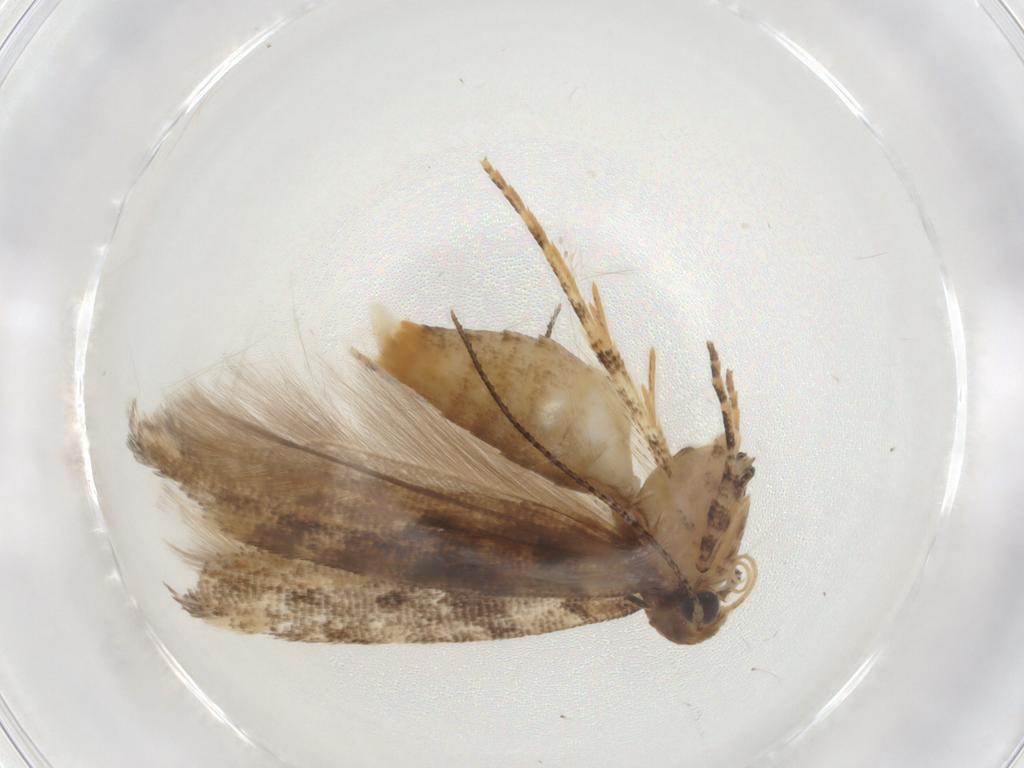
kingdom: Animalia
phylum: Arthropoda
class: Insecta
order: Lepidoptera
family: Gelechiidae
